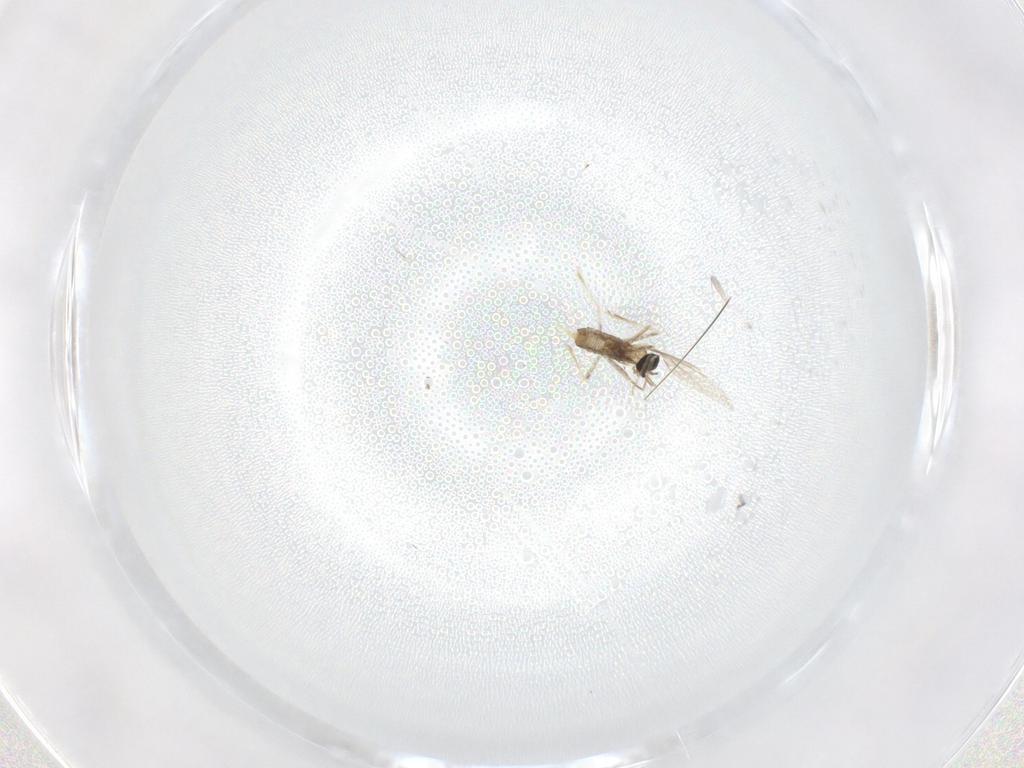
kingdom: Animalia
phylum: Arthropoda
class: Insecta
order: Diptera
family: Cecidomyiidae
